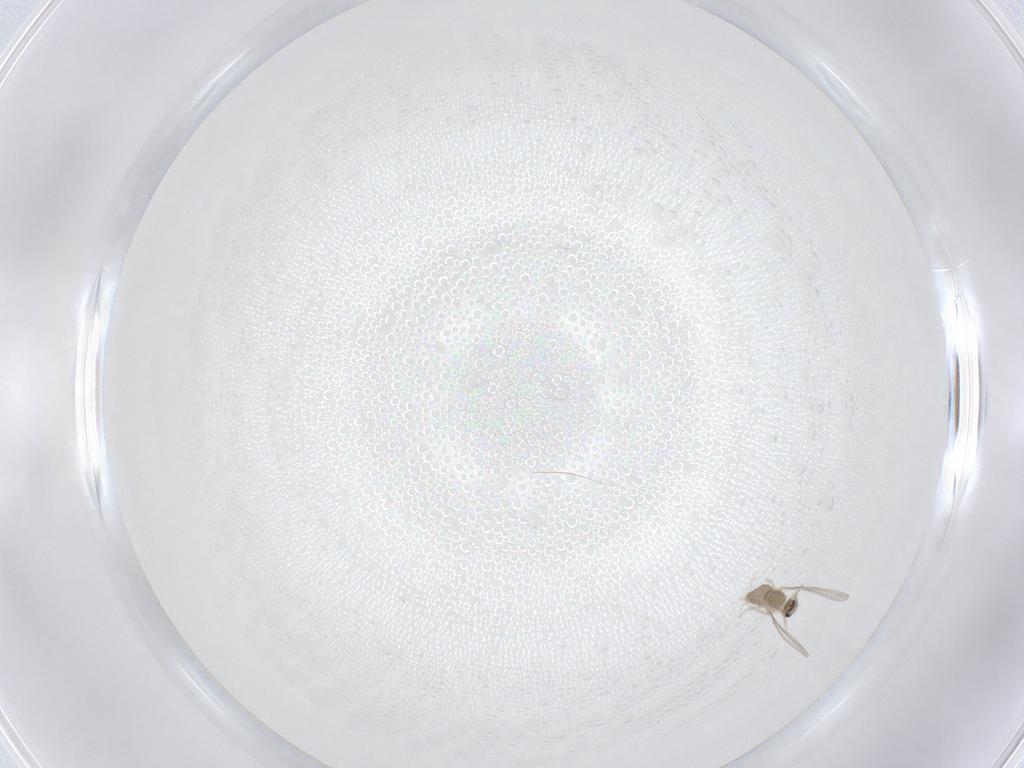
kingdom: Animalia
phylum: Arthropoda
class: Insecta
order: Diptera
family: Cecidomyiidae
